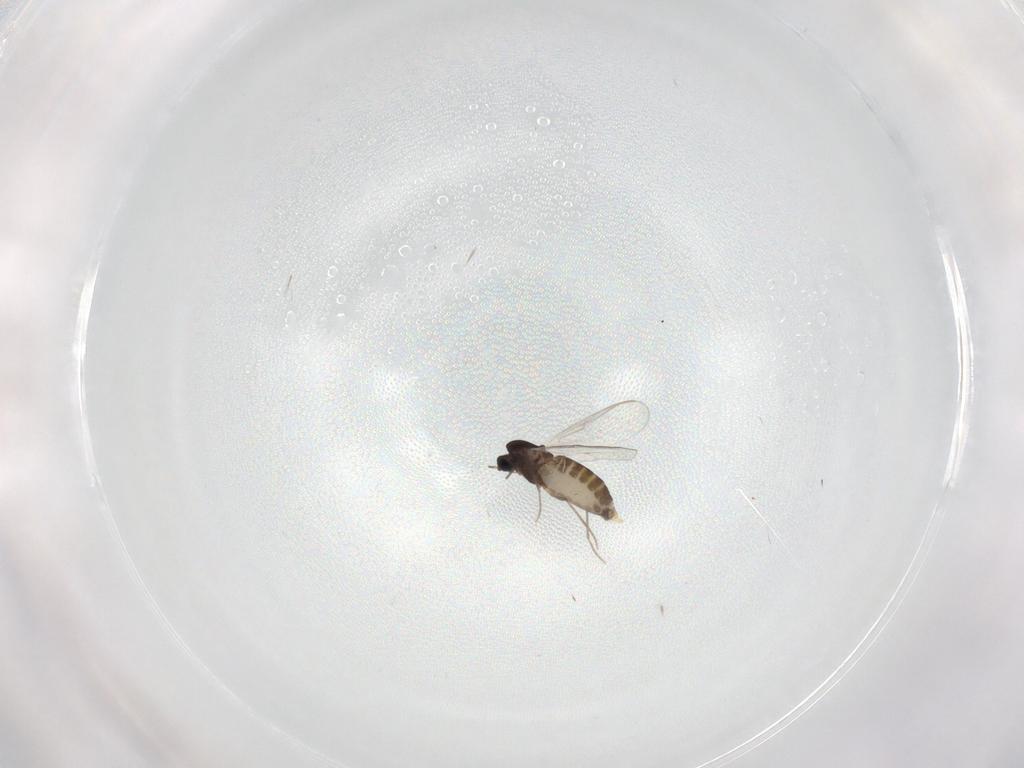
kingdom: Animalia
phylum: Arthropoda
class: Insecta
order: Diptera
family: Chironomidae
